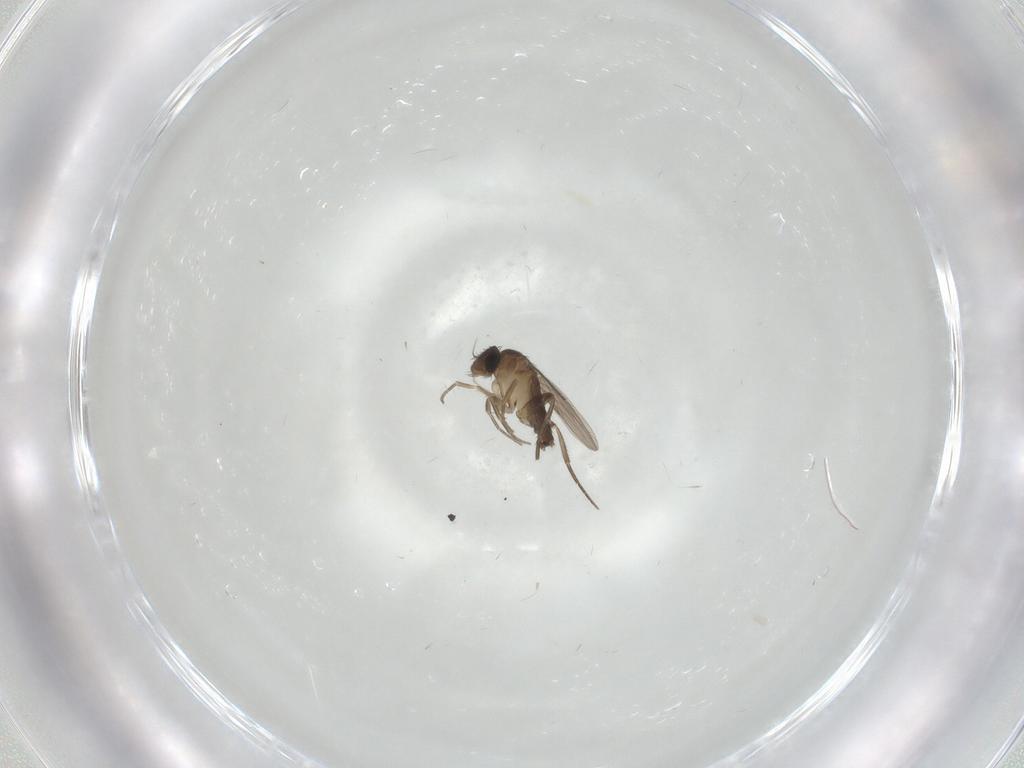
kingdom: Animalia
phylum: Arthropoda
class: Insecta
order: Diptera
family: Phoridae
